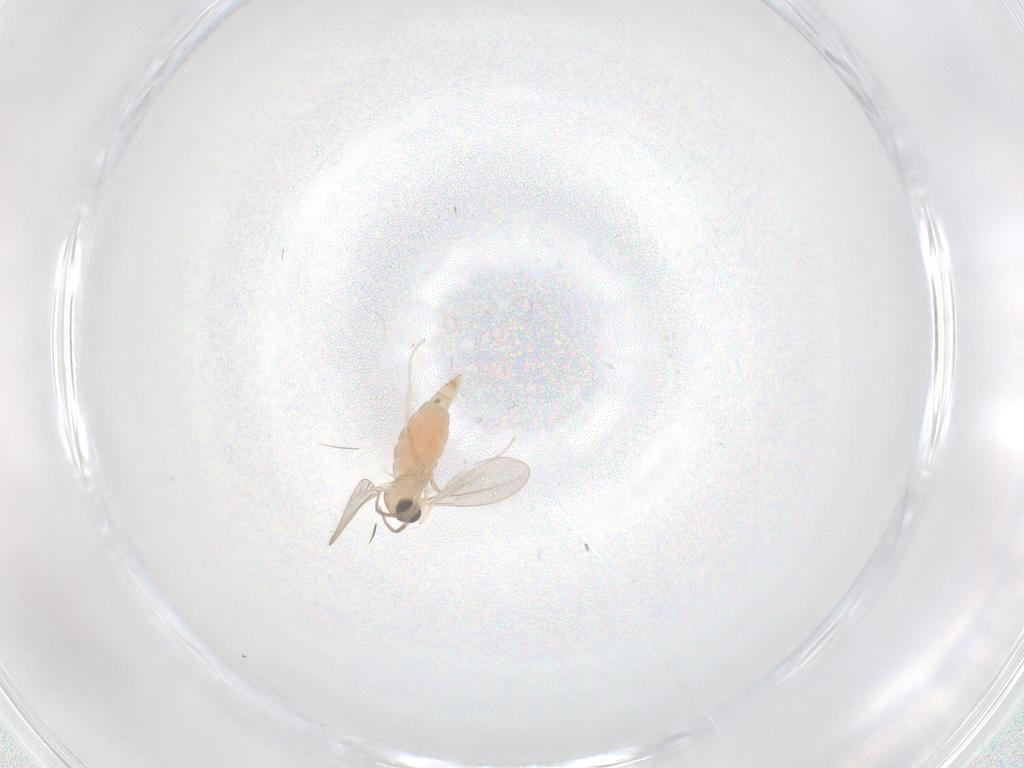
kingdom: Animalia
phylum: Arthropoda
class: Insecta
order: Diptera
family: Cecidomyiidae
